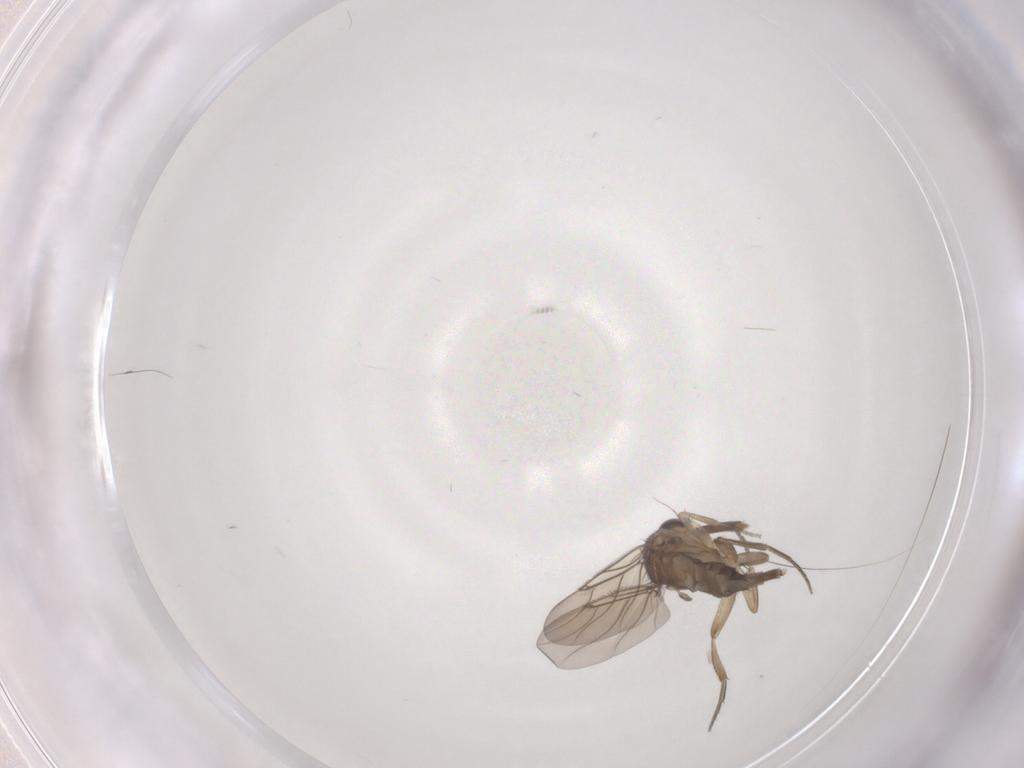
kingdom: Animalia
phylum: Arthropoda
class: Insecta
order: Diptera
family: Phoridae
